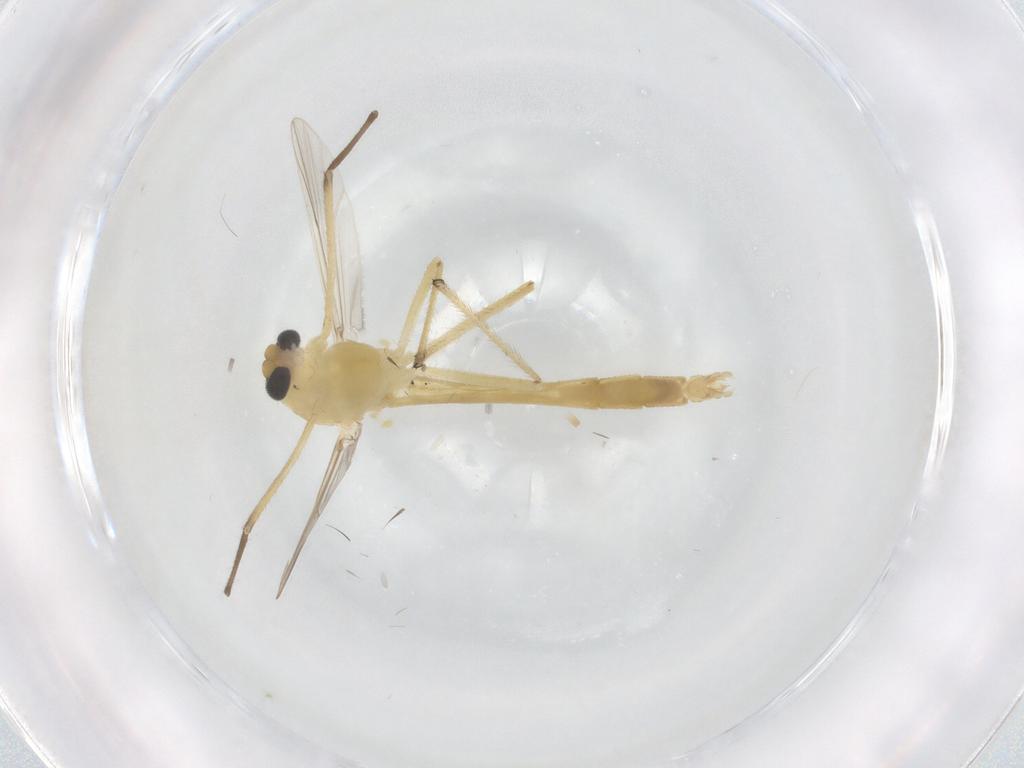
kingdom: Animalia
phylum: Arthropoda
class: Insecta
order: Diptera
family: Chironomidae
